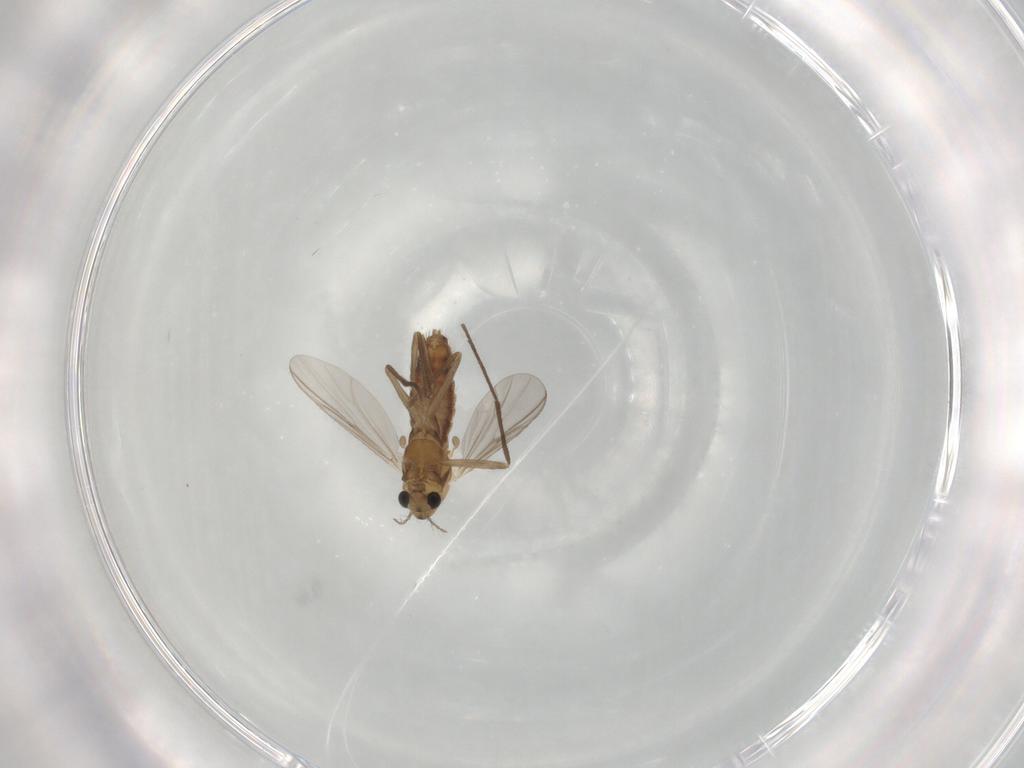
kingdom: Animalia
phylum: Arthropoda
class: Insecta
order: Diptera
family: Chironomidae
